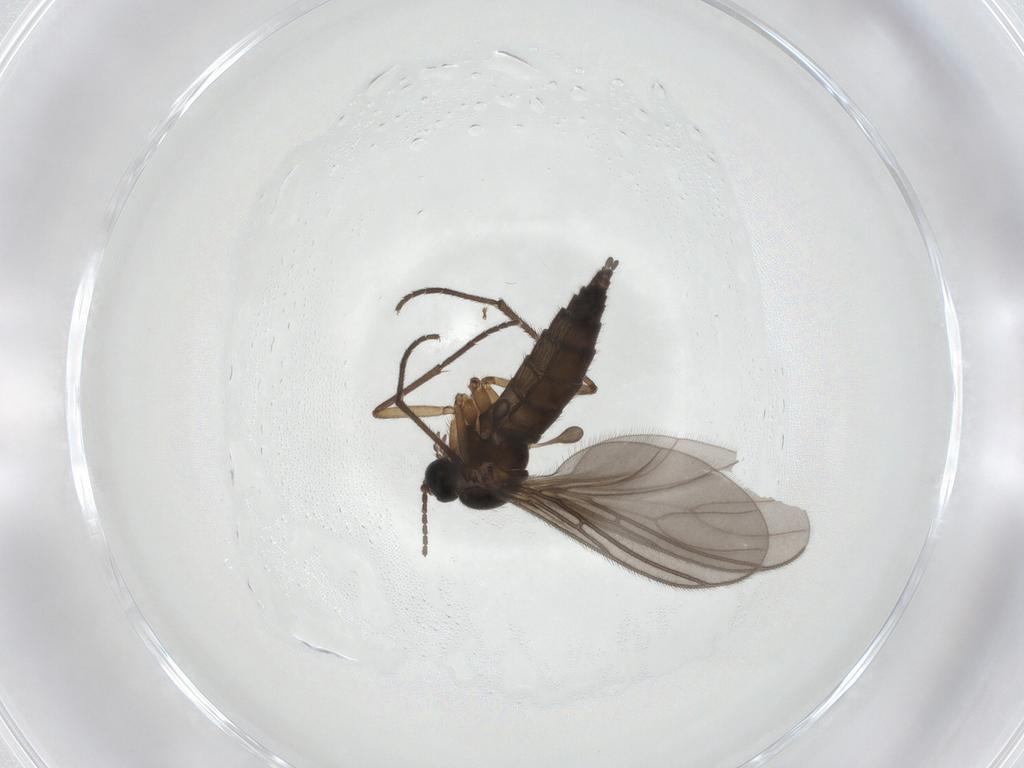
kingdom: Animalia
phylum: Arthropoda
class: Insecta
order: Diptera
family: Sciaridae
